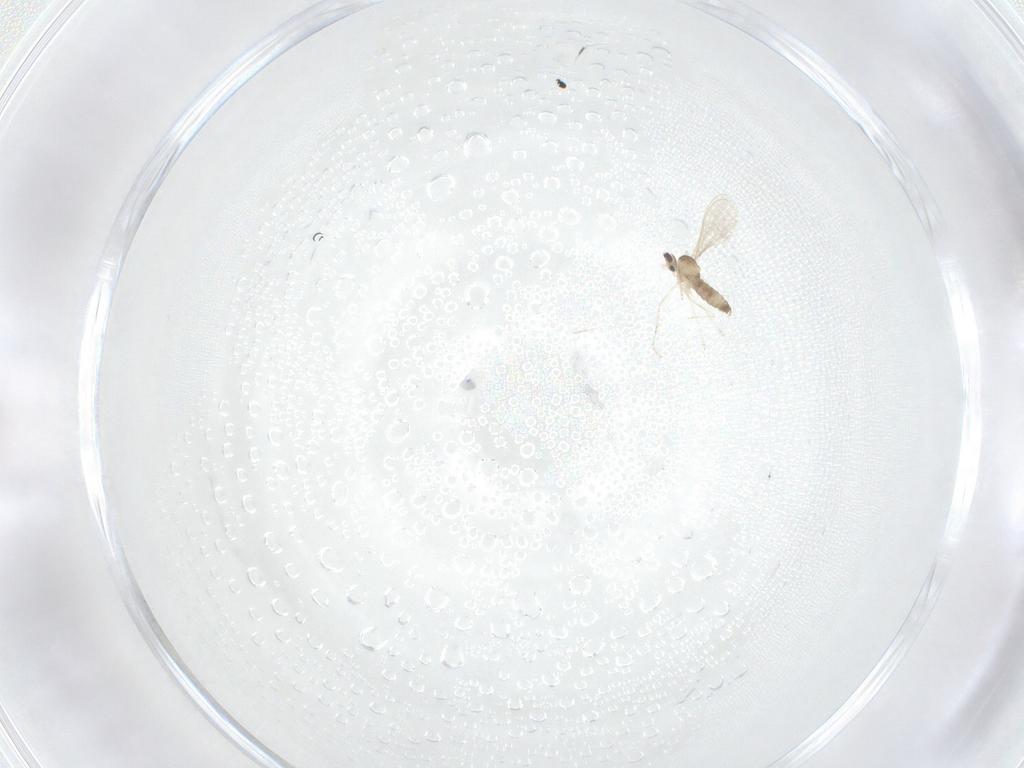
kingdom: Animalia
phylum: Arthropoda
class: Insecta
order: Diptera
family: Cecidomyiidae
